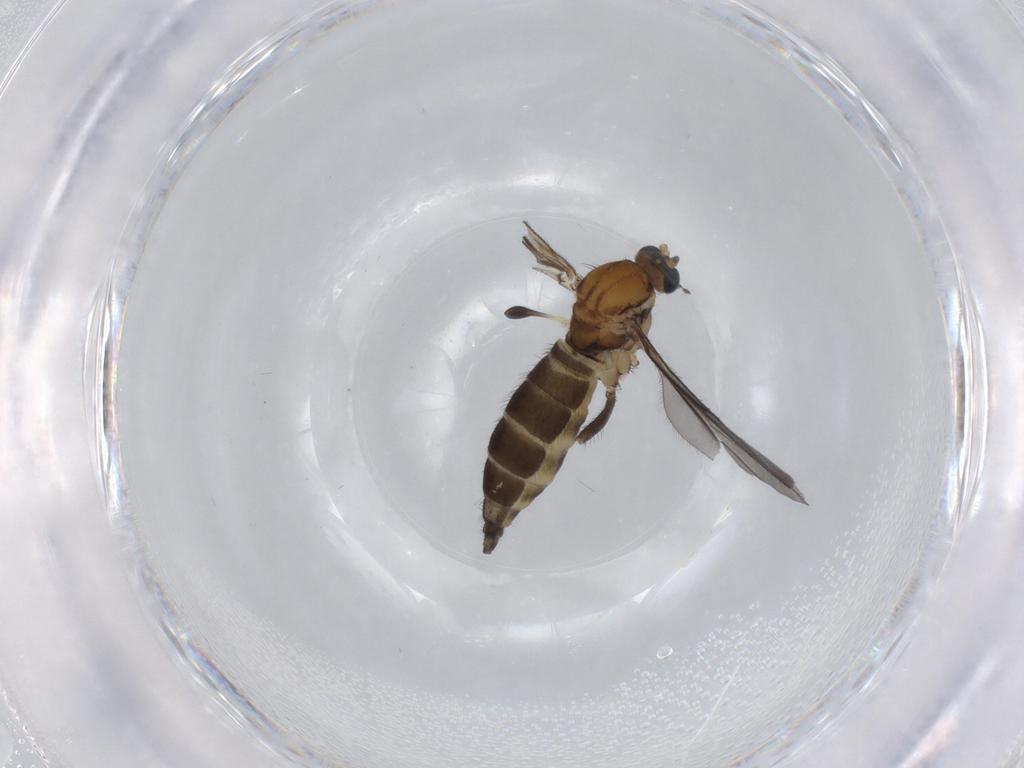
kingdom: Animalia
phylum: Arthropoda
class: Insecta
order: Diptera
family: Sciaridae
